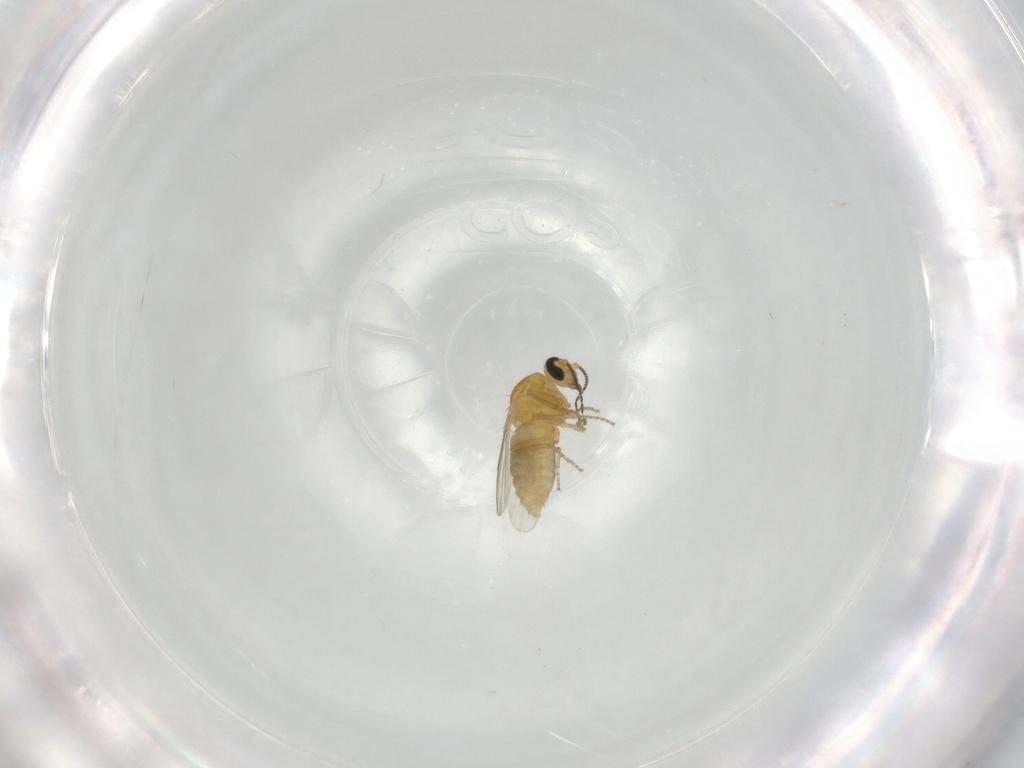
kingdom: Animalia
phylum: Arthropoda
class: Insecta
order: Diptera
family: Ceratopogonidae
